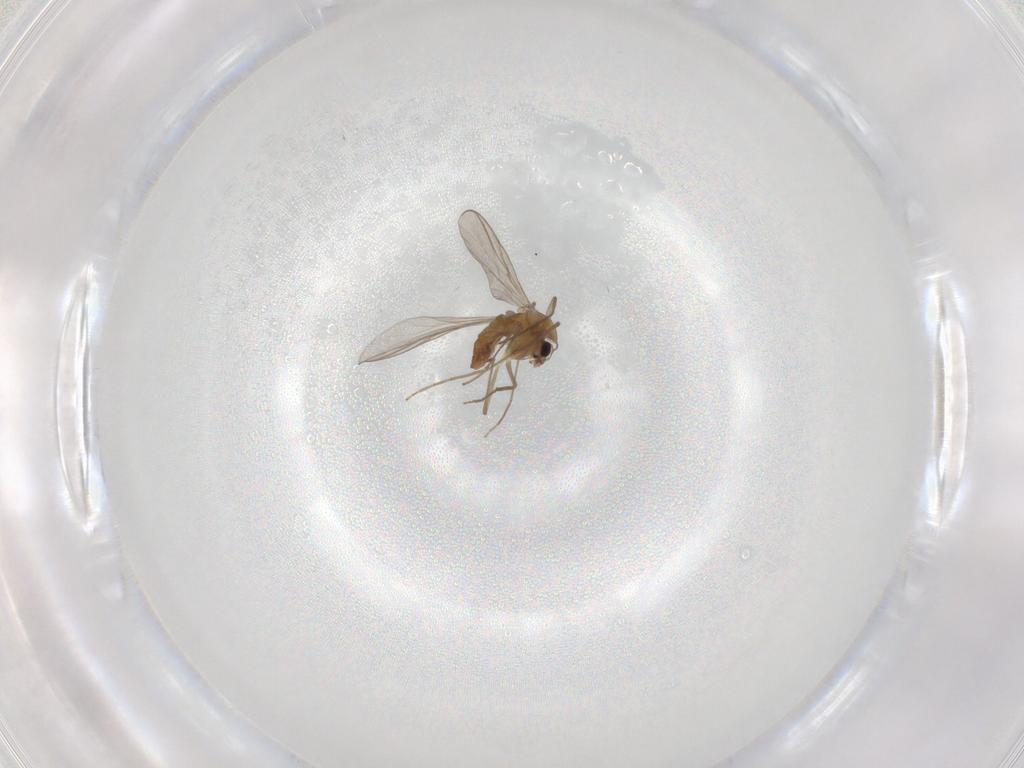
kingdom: Animalia
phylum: Arthropoda
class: Insecta
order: Diptera
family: Chironomidae
